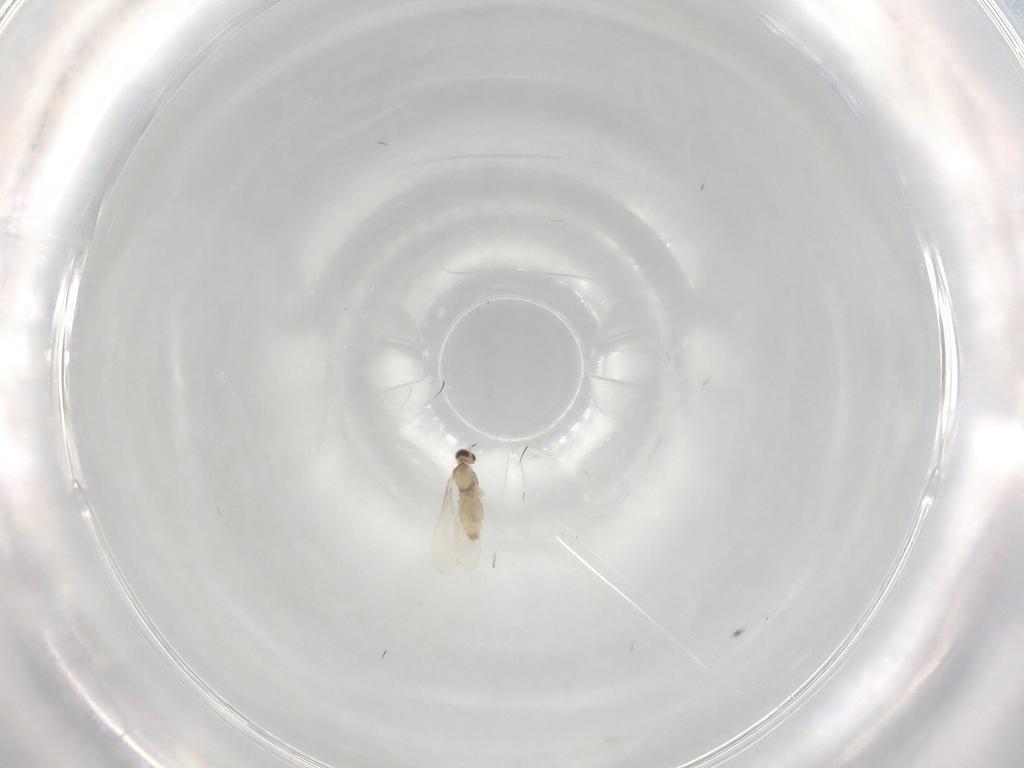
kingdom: Animalia
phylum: Arthropoda
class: Insecta
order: Diptera
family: Cecidomyiidae
